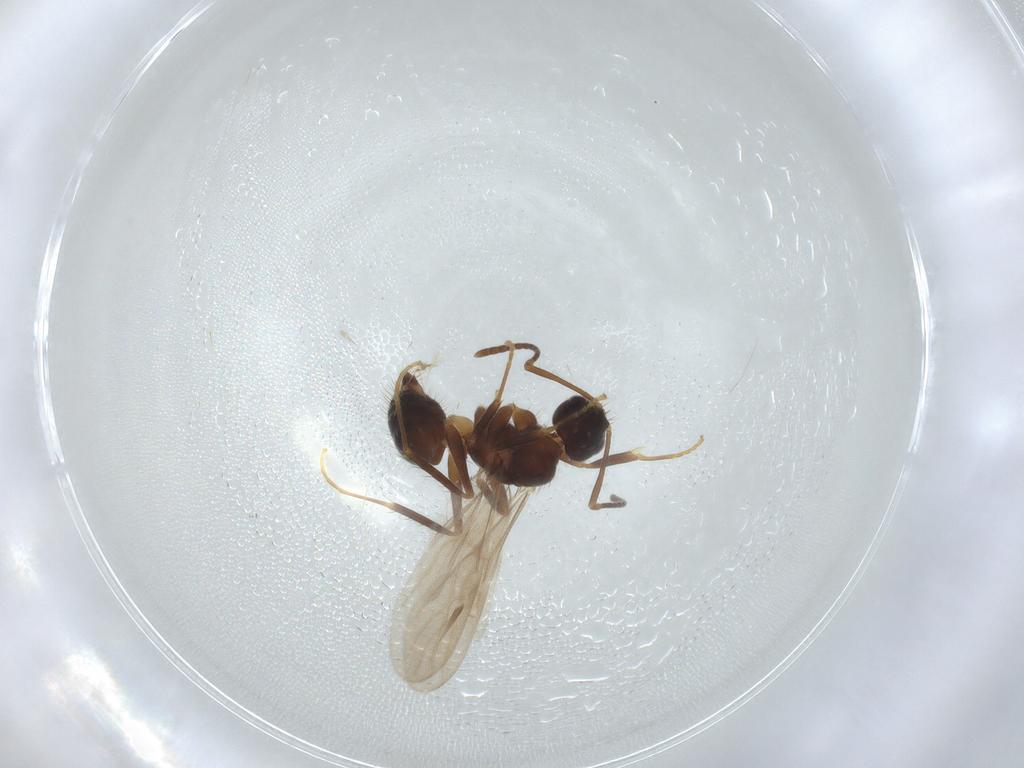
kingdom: Animalia
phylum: Arthropoda
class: Insecta
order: Hymenoptera
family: Formicidae
